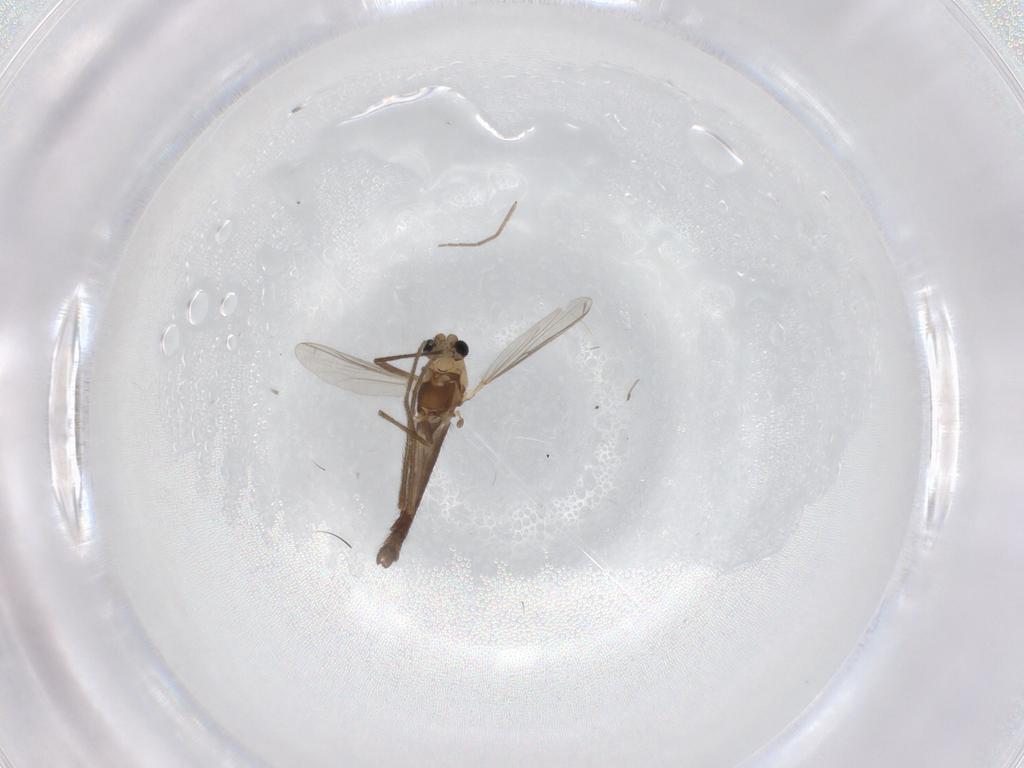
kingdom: Animalia
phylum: Arthropoda
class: Insecta
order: Diptera
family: Chironomidae
